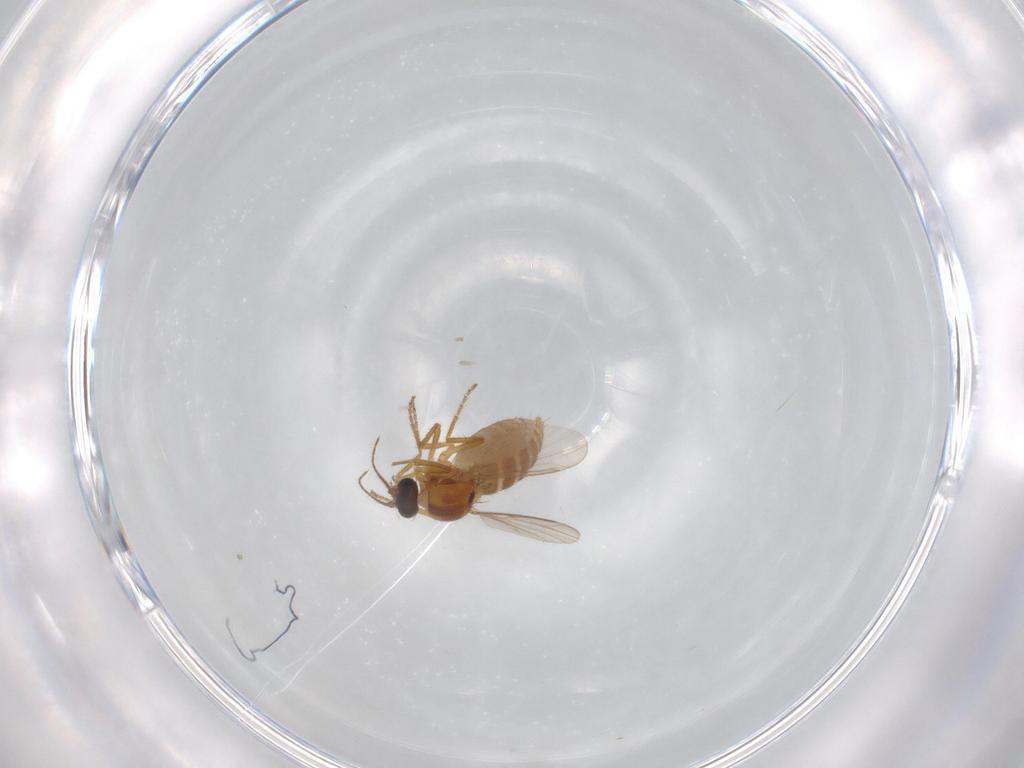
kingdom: Animalia
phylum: Arthropoda
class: Insecta
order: Diptera
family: Ceratopogonidae
